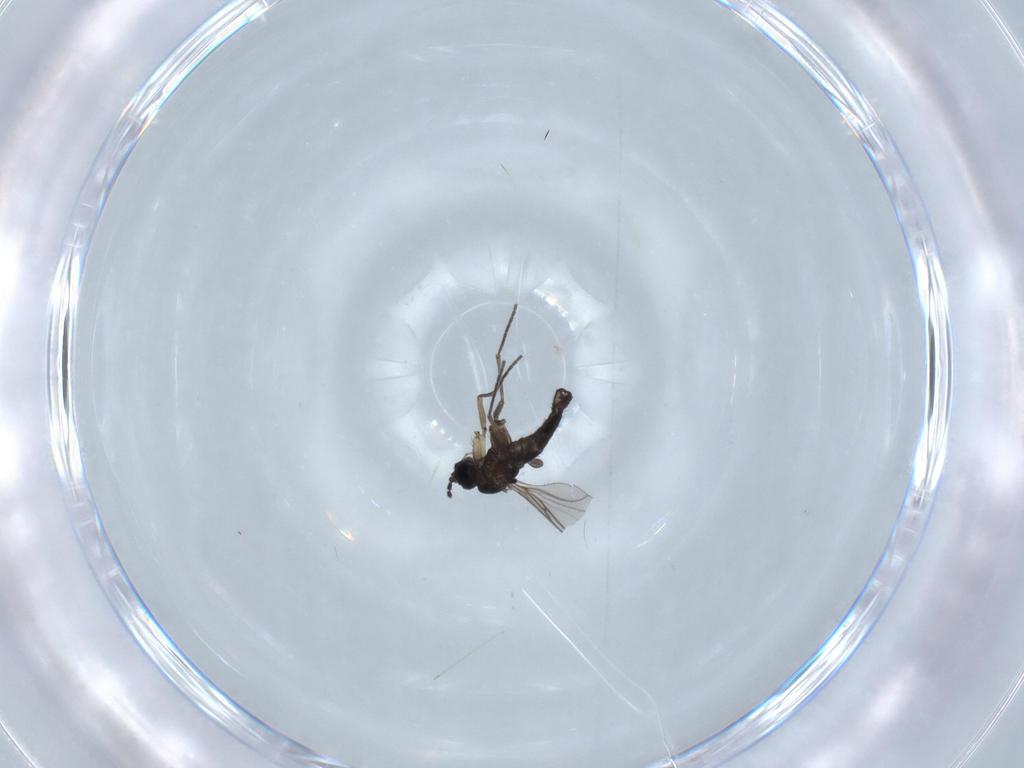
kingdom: Animalia
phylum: Arthropoda
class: Insecta
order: Diptera
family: Sciaridae
